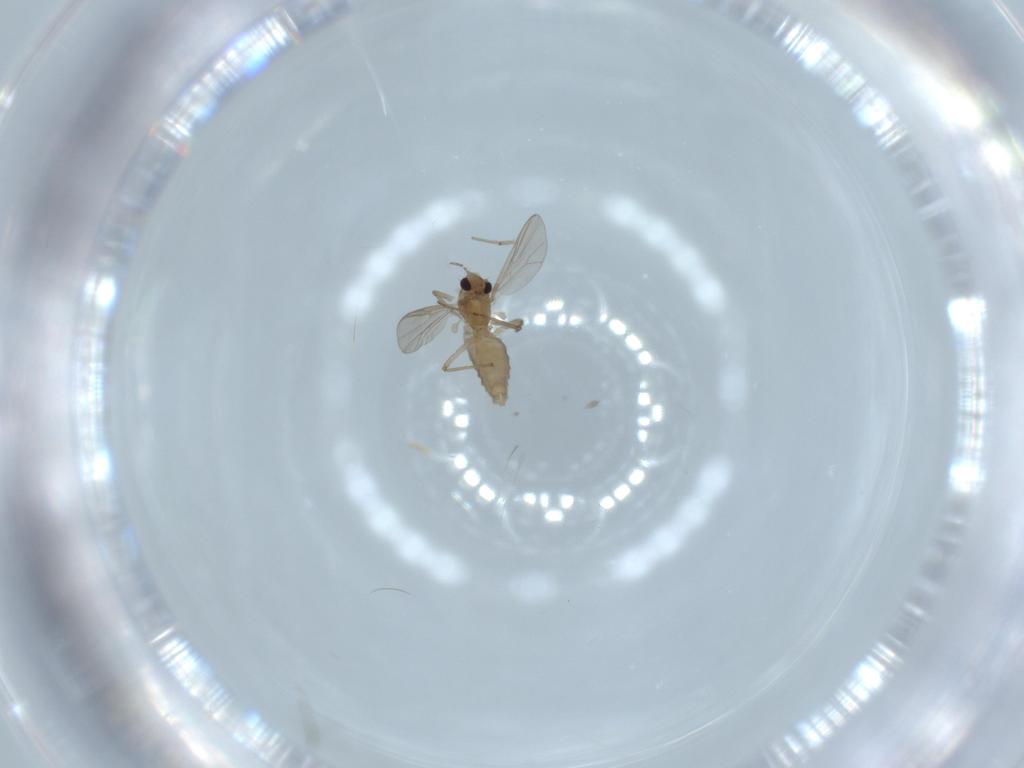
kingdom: Animalia
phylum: Arthropoda
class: Insecta
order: Diptera
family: Chironomidae
